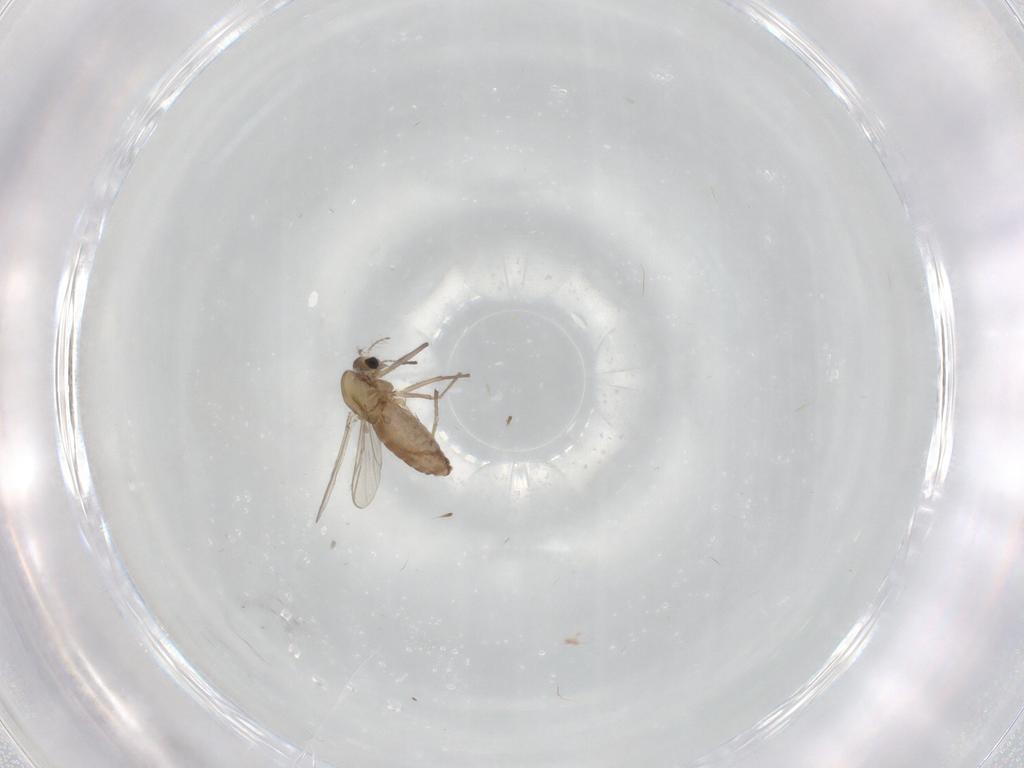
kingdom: Animalia
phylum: Arthropoda
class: Insecta
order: Diptera
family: Chironomidae
